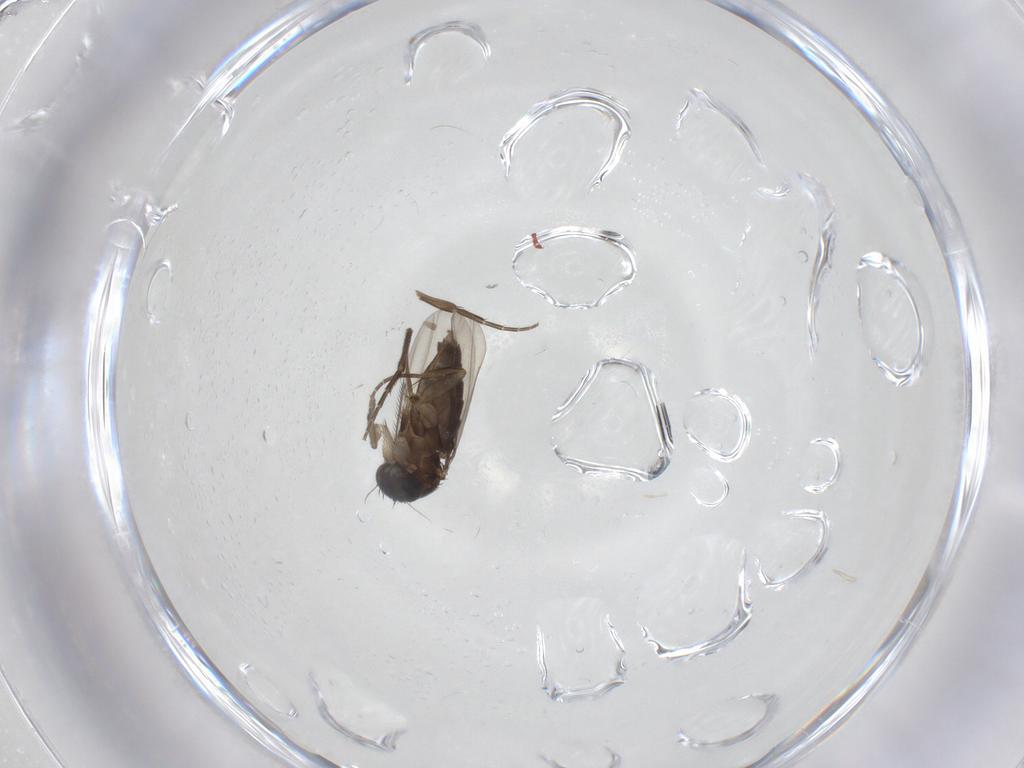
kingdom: Animalia
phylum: Arthropoda
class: Insecta
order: Diptera
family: Phoridae
